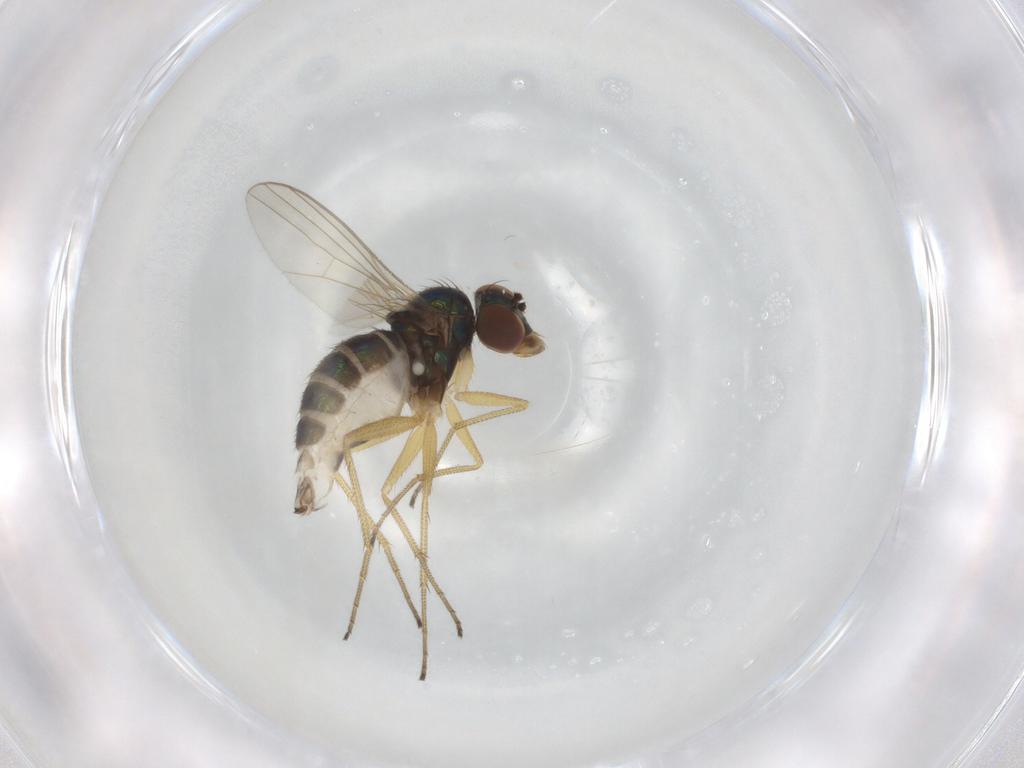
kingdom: Animalia
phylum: Arthropoda
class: Insecta
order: Diptera
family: Dolichopodidae
